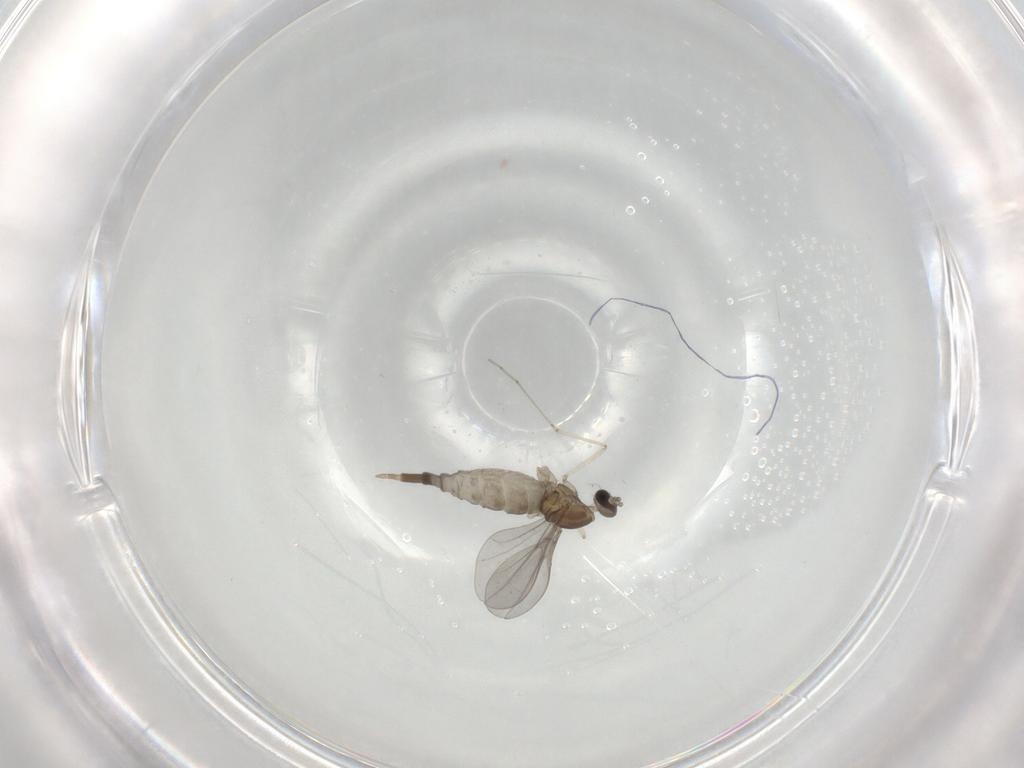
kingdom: Animalia
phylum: Arthropoda
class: Insecta
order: Diptera
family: Cecidomyiidae
